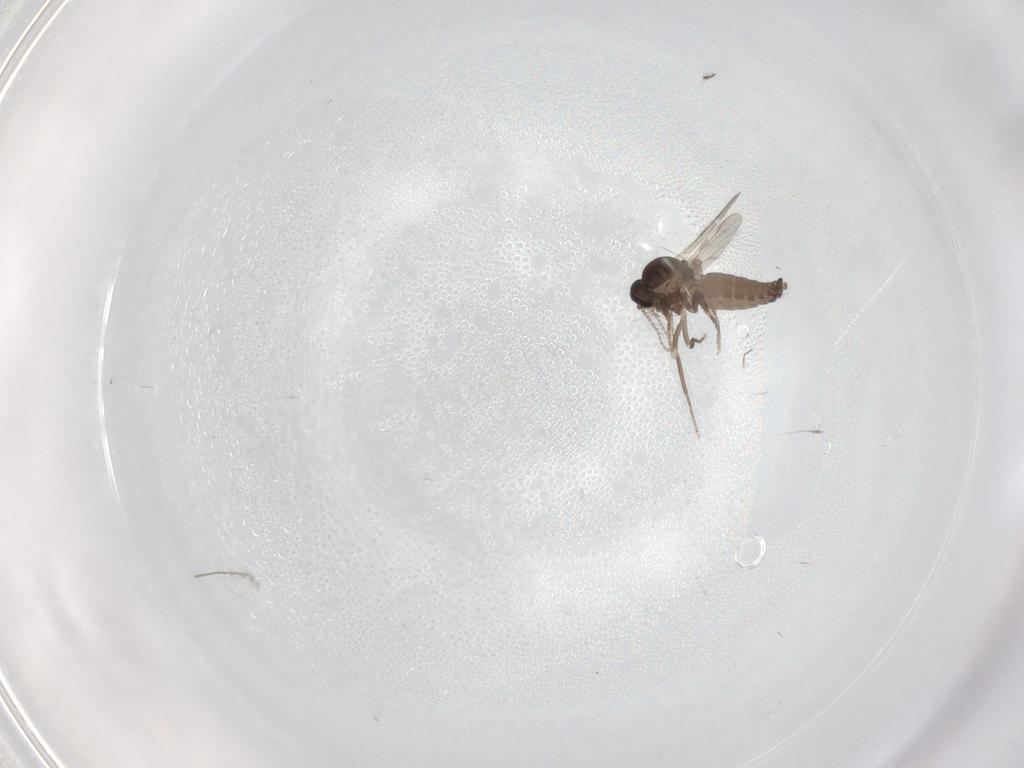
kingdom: Animalia
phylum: Arthropoda
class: Insecta
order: Diptera
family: Ceratopogonidae
